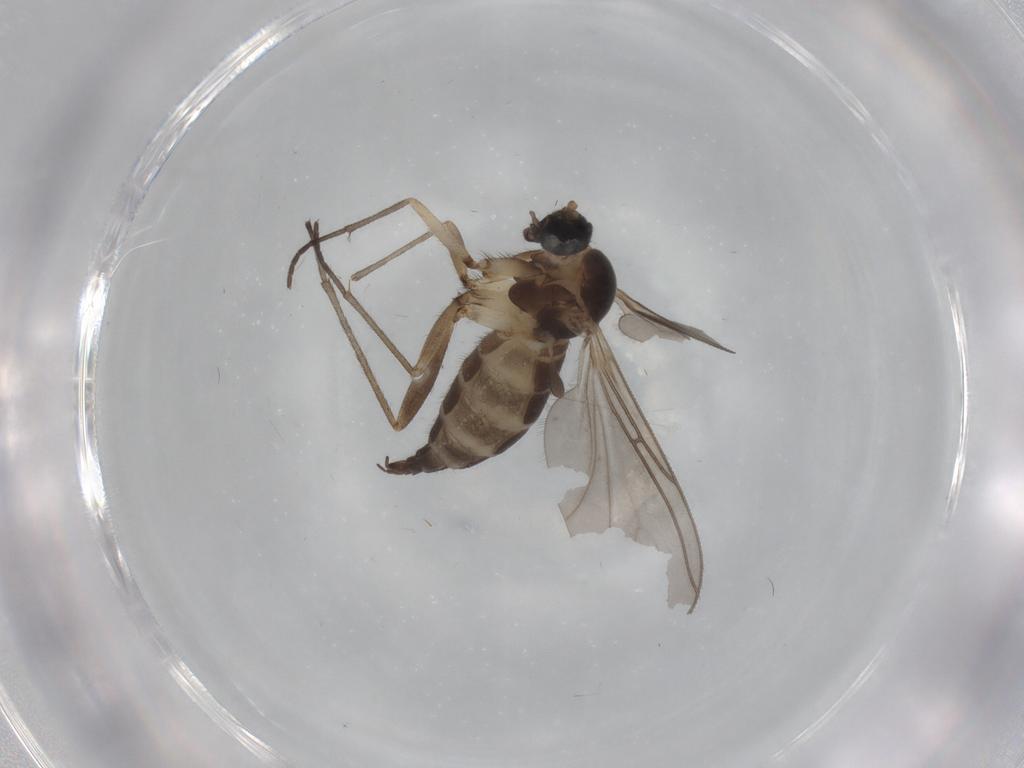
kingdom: Animalia
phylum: Arthropoda
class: Insecta
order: Diptera
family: Sciaridae
